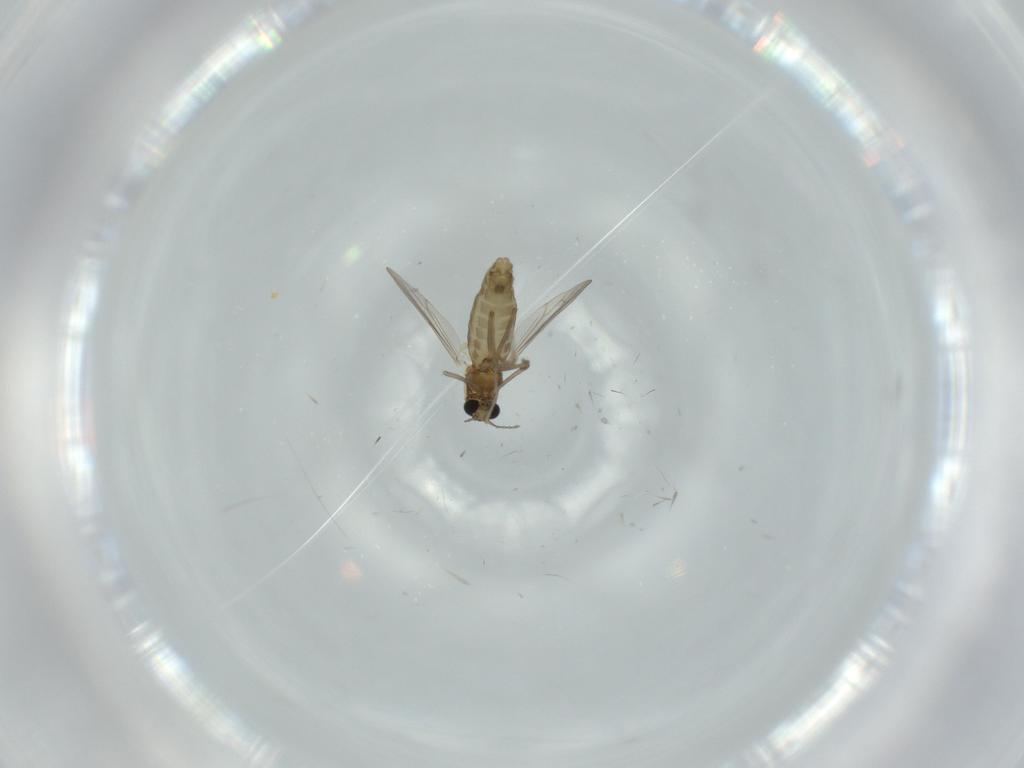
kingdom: Animalia
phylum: Arthropoda
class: Insecta
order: Diptera
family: Chironomidae
